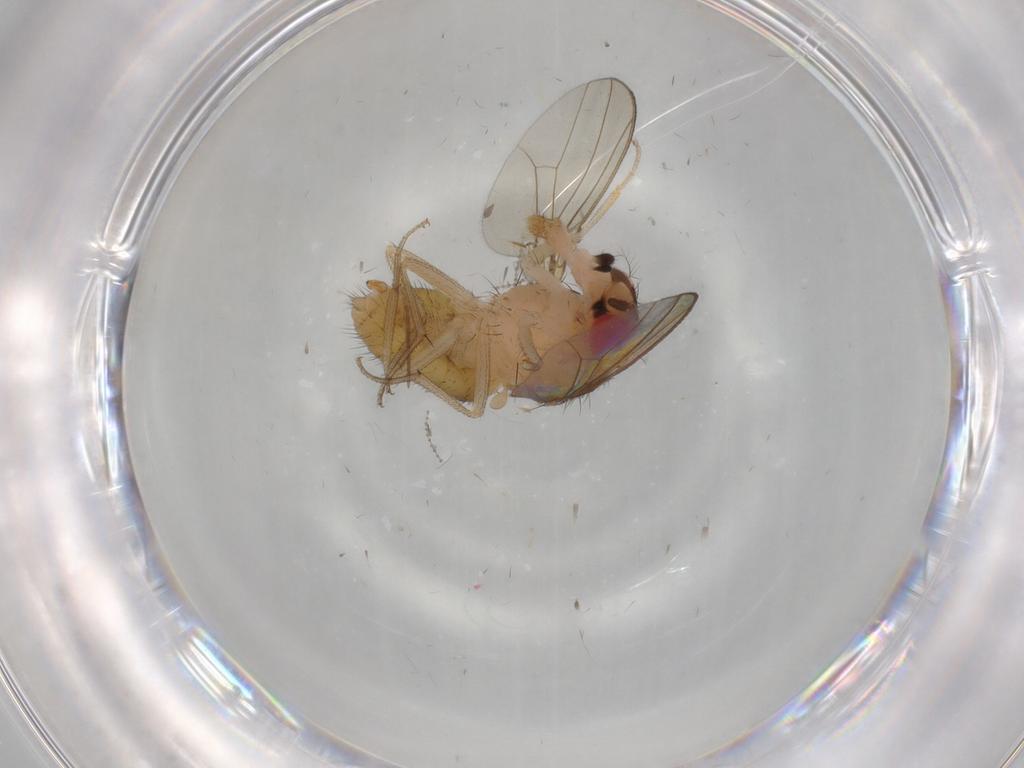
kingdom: Animalia
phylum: Arthropoda
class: Insecta
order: Diptera
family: Drosophilidae
